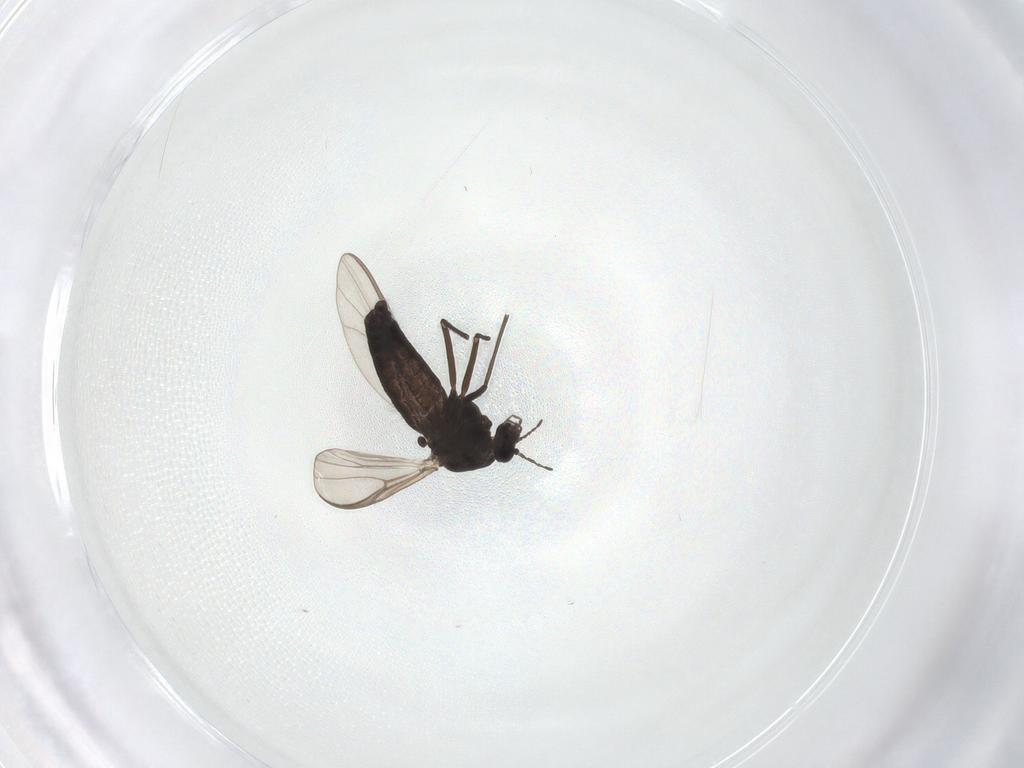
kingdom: Animalia
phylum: Arthropoda
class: Insecta
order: Diptera
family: Chironomidae
